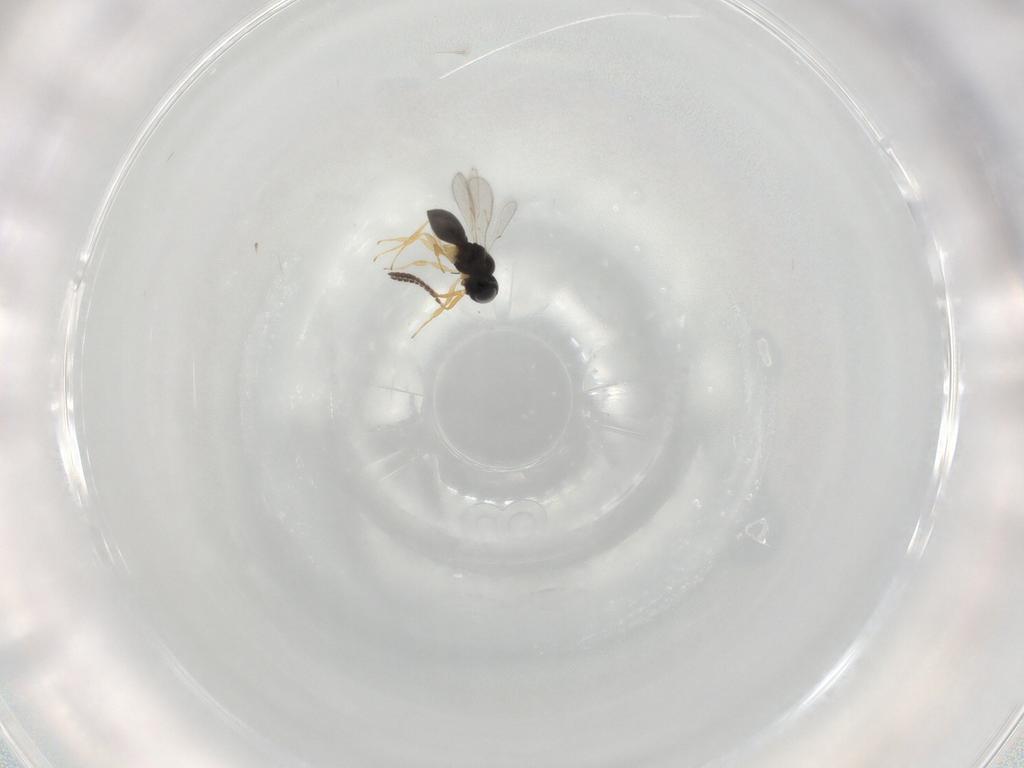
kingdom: Animalia
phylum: Arthropoda
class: Insecta
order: Hymenoptera
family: Scelionidae
